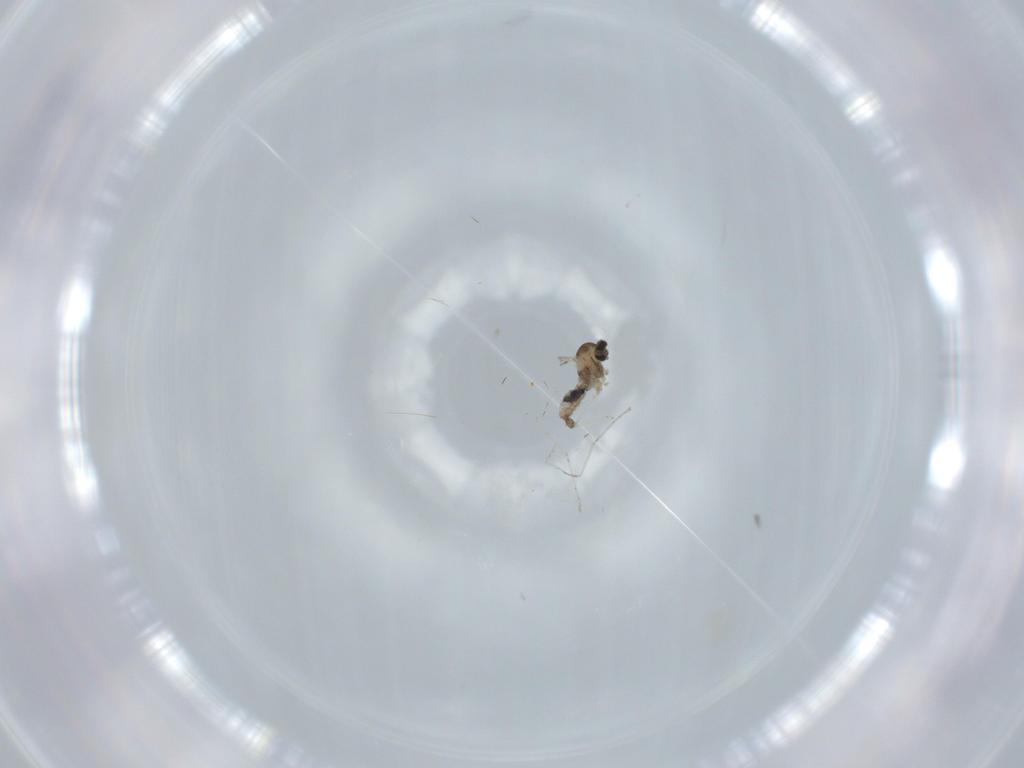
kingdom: Animalia
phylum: Arthropoda
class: Insecta
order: Diptera
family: Cecidomyiidae
